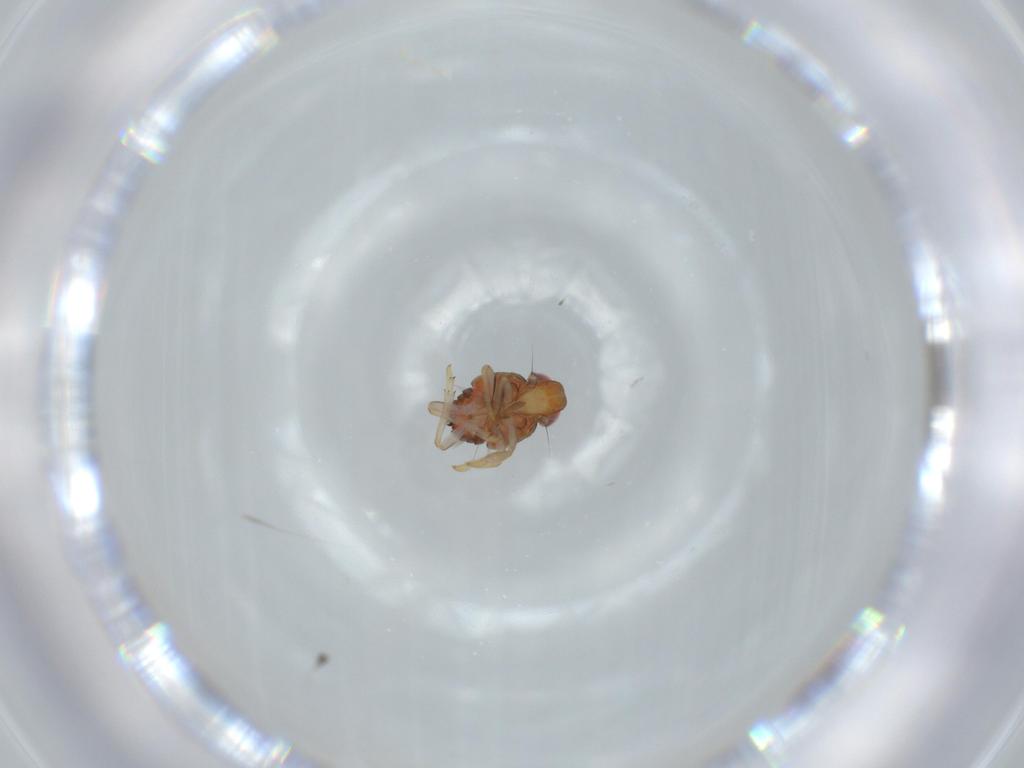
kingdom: Animalia
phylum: Arthropoda
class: Insecta
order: Hemiptera
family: Issidae
